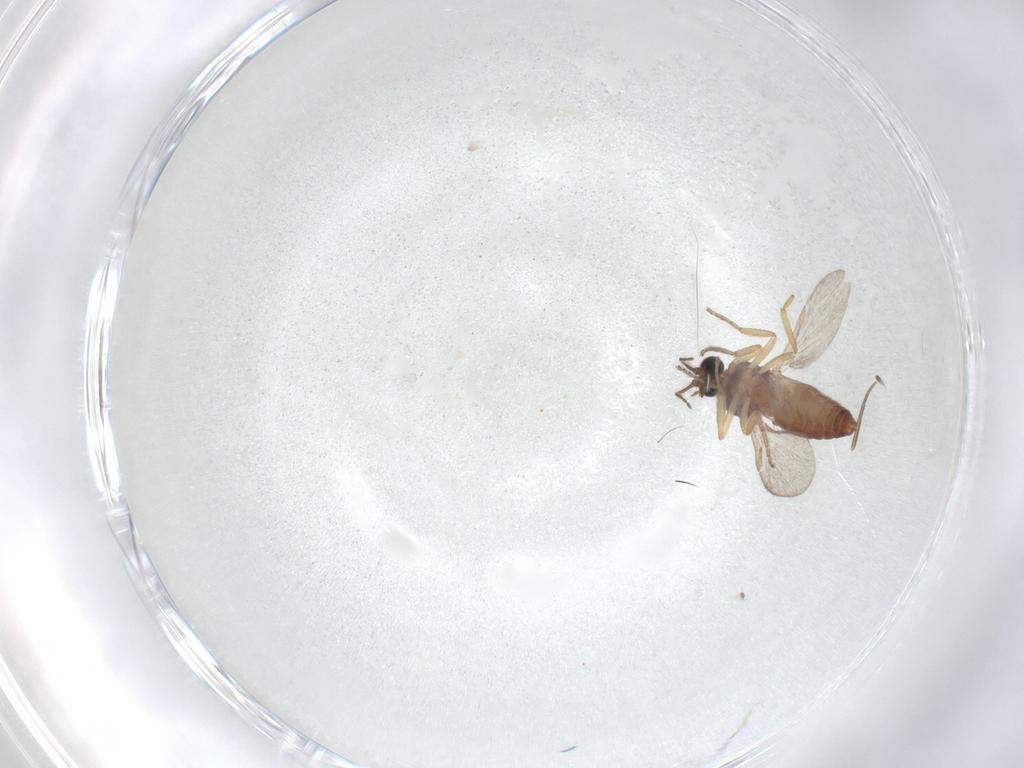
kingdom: Animalia
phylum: Arthropoda
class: Insecta
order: Diptera
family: Ceratopogonidae
